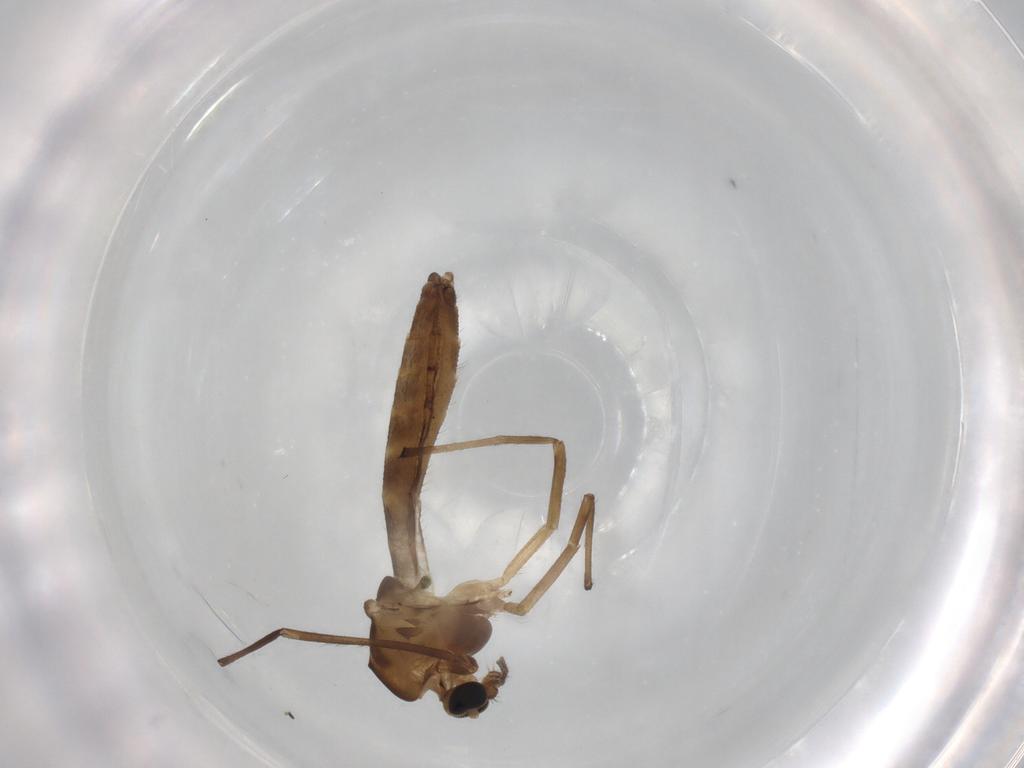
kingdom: Animalia
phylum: Arthropoda
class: Insecta
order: Diptera
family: Chironomidae
